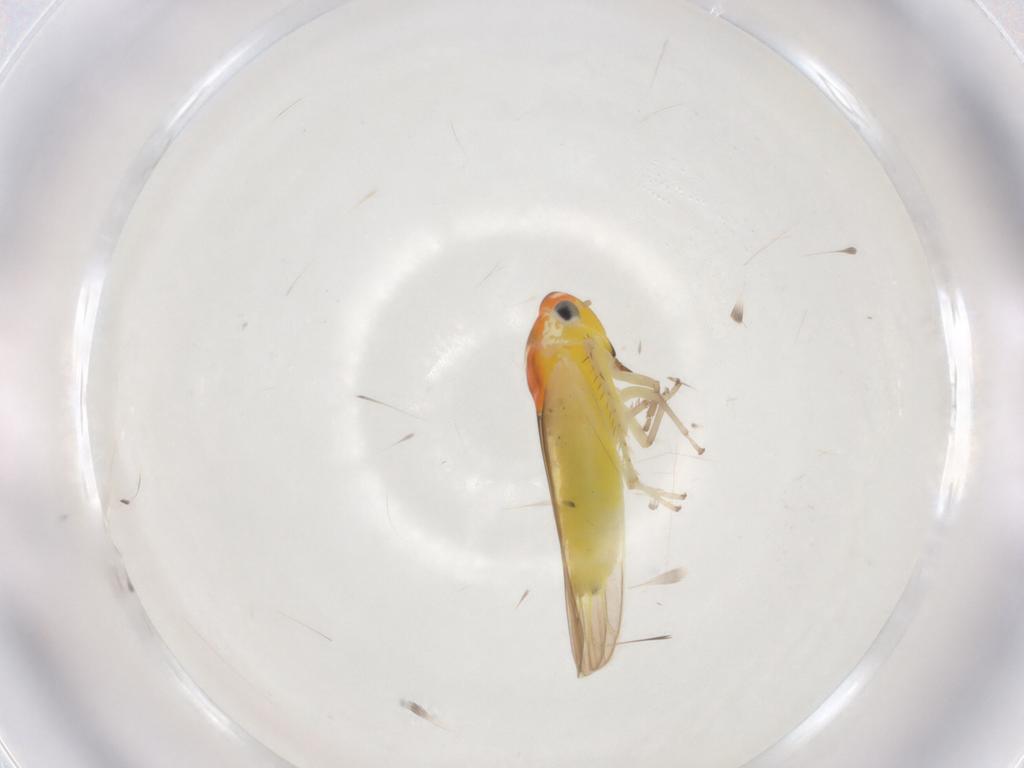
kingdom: Animalia
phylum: Arthropoda
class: Insecta
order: Hemiptera
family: Cicadellidae
